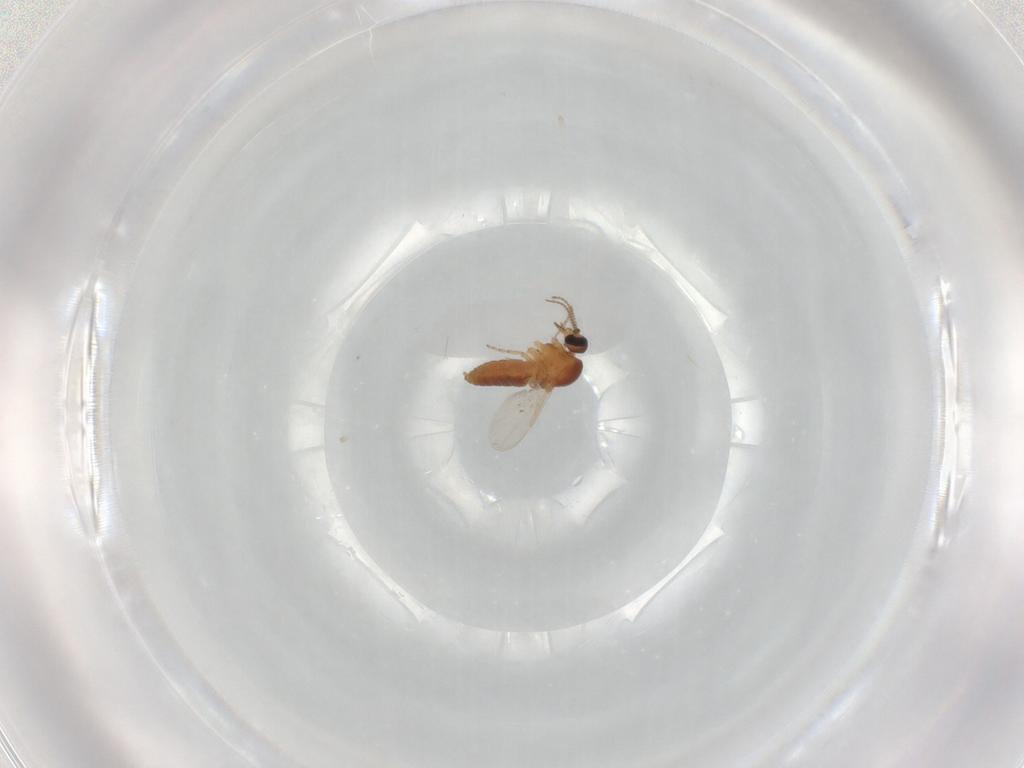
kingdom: Animalia
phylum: Arthropoda
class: Insecta
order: Diptera
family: Ceratopogonidae
